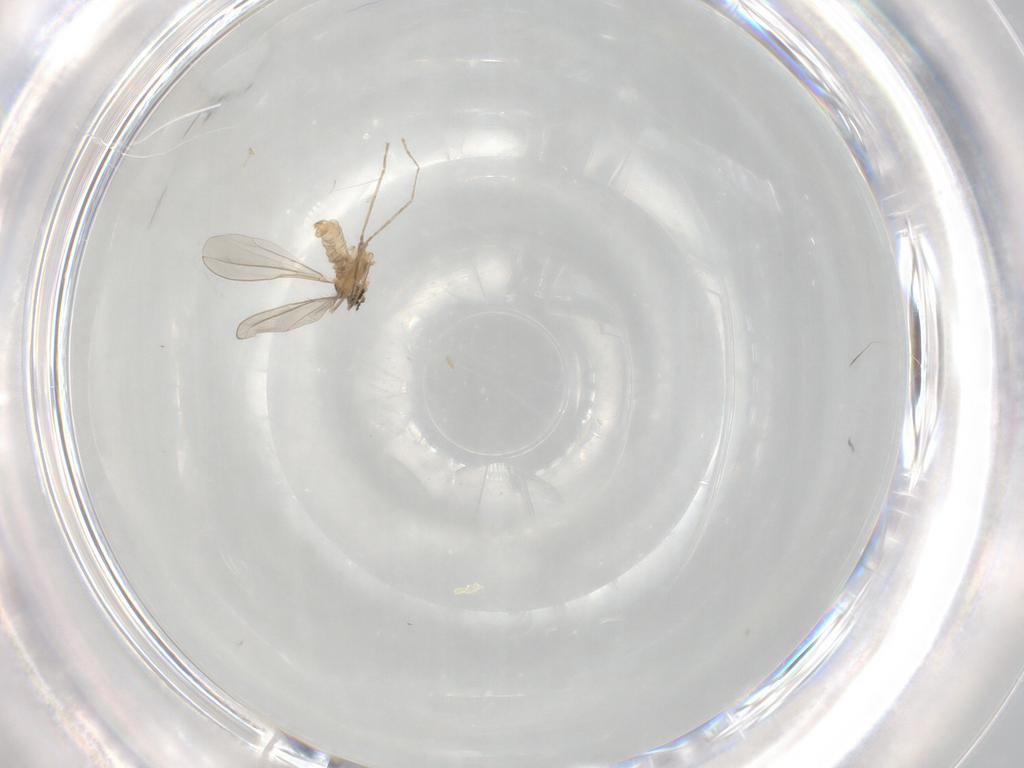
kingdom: Animalia
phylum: Arthropoda
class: Insecta
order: Diptera
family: Cecidomyiidae
